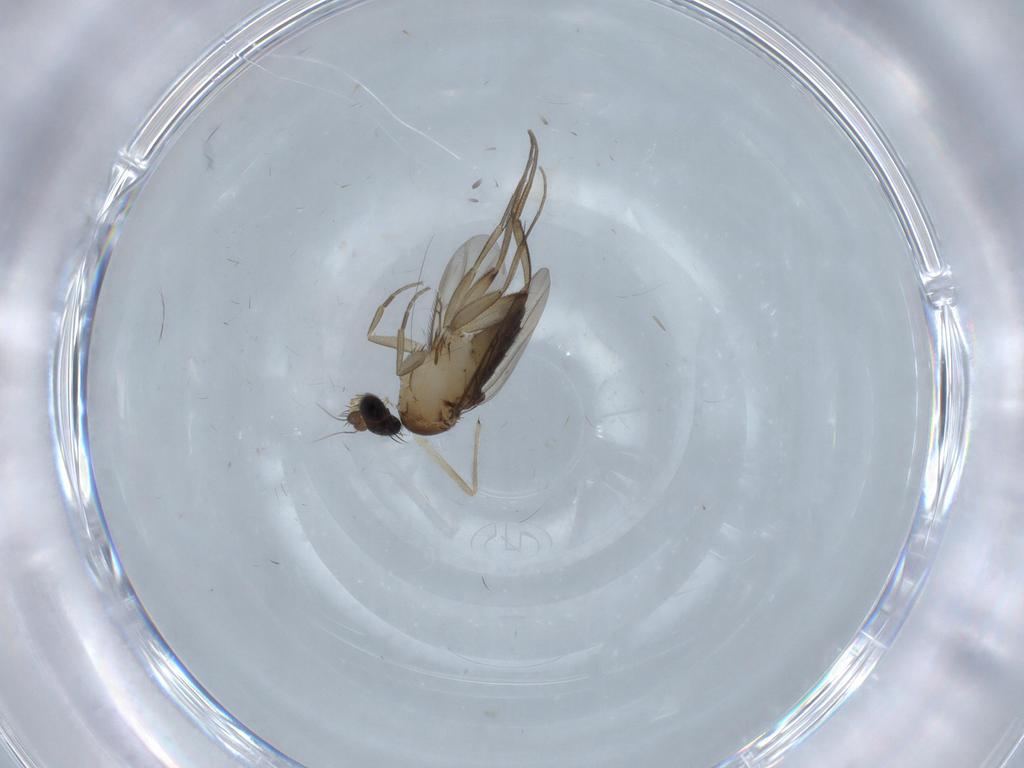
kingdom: Animalia
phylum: Arthropoda
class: Insecta
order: Diptera
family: Phoridae
